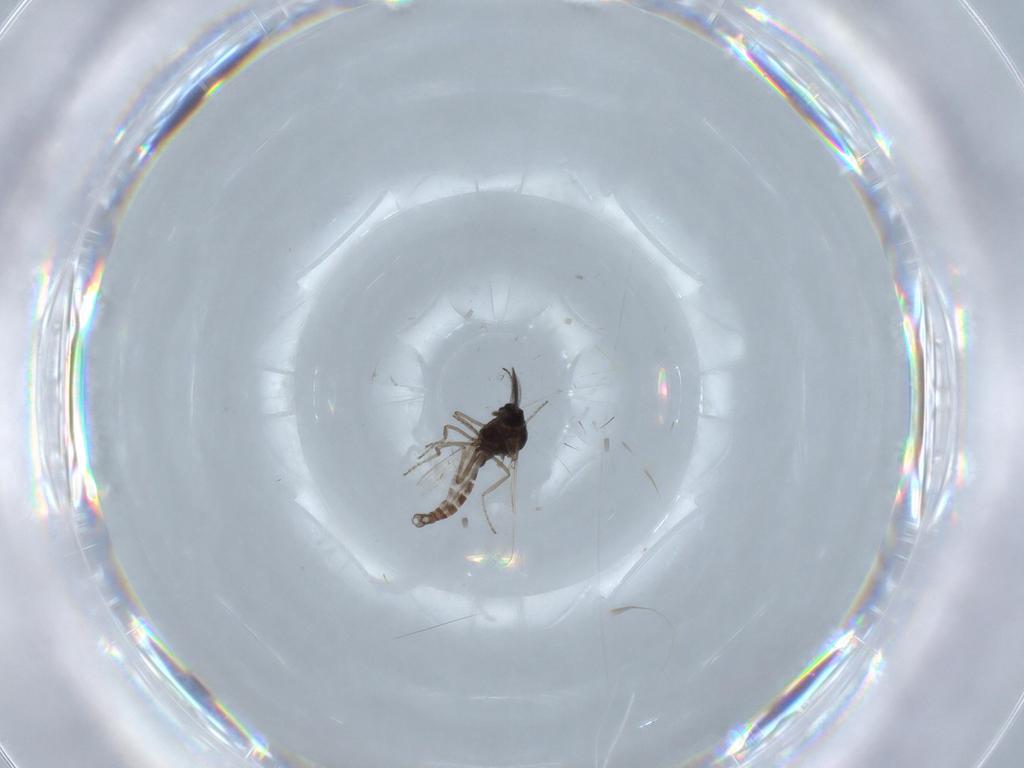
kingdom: Animalia
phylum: Arthropoda
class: Insecta
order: Diptera
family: Ceratopogonidae
